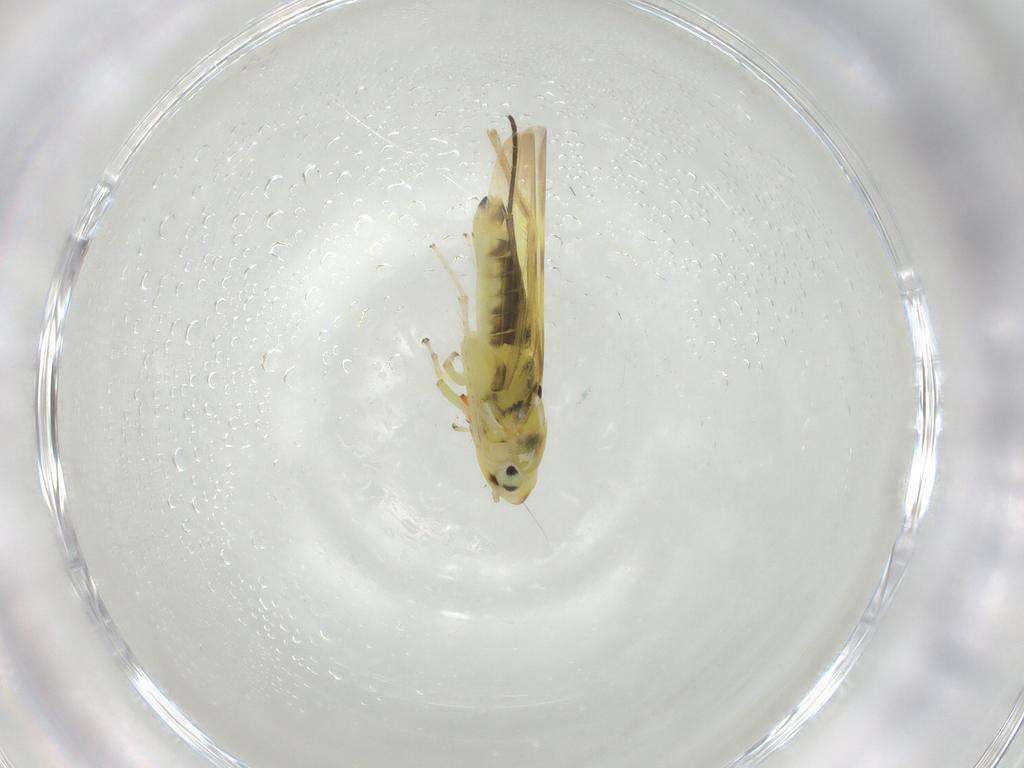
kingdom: Animalia
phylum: Arthropoda
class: Insecta
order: Hemiptera
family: Cicadellidae
